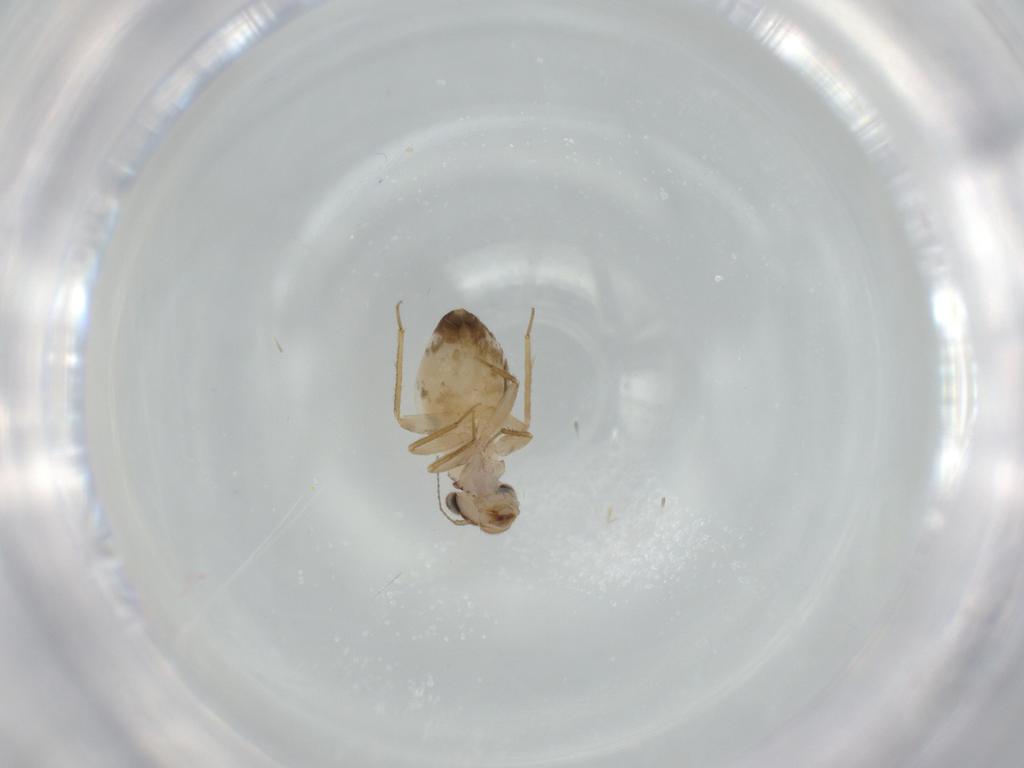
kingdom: Animalia
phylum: Arthropoda
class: Insecta
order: Psocodea
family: Lepidopsocidae
